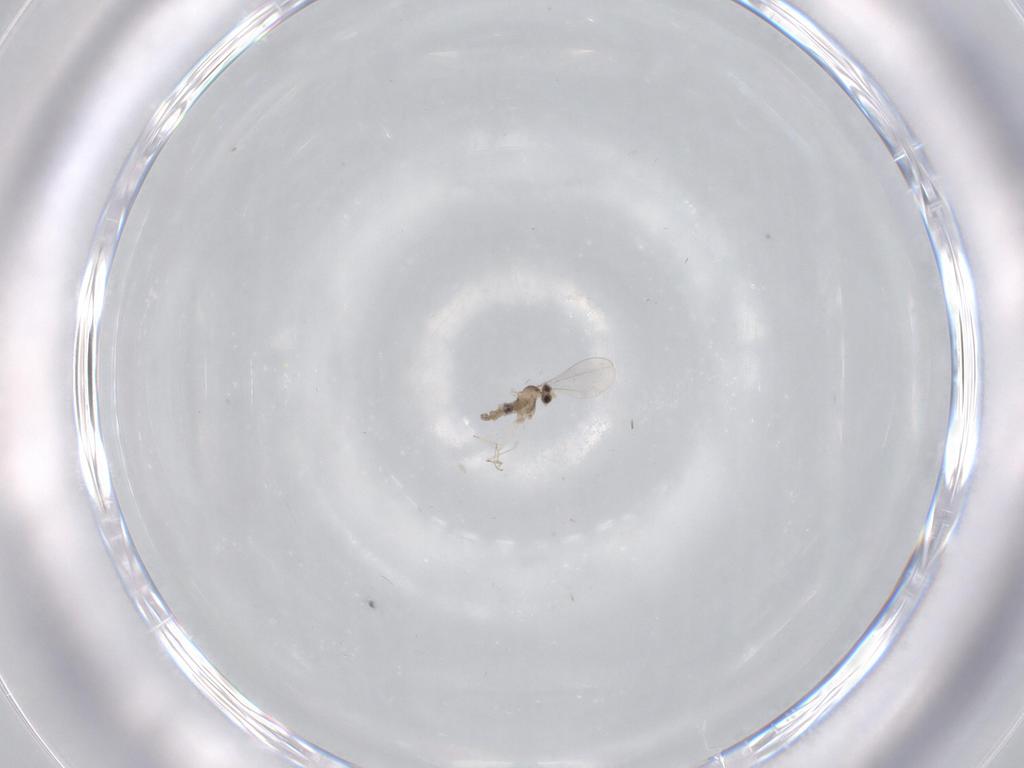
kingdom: Animalia
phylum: Arthropoda
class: Insecta
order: Diptera
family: Cecidomyiidae
